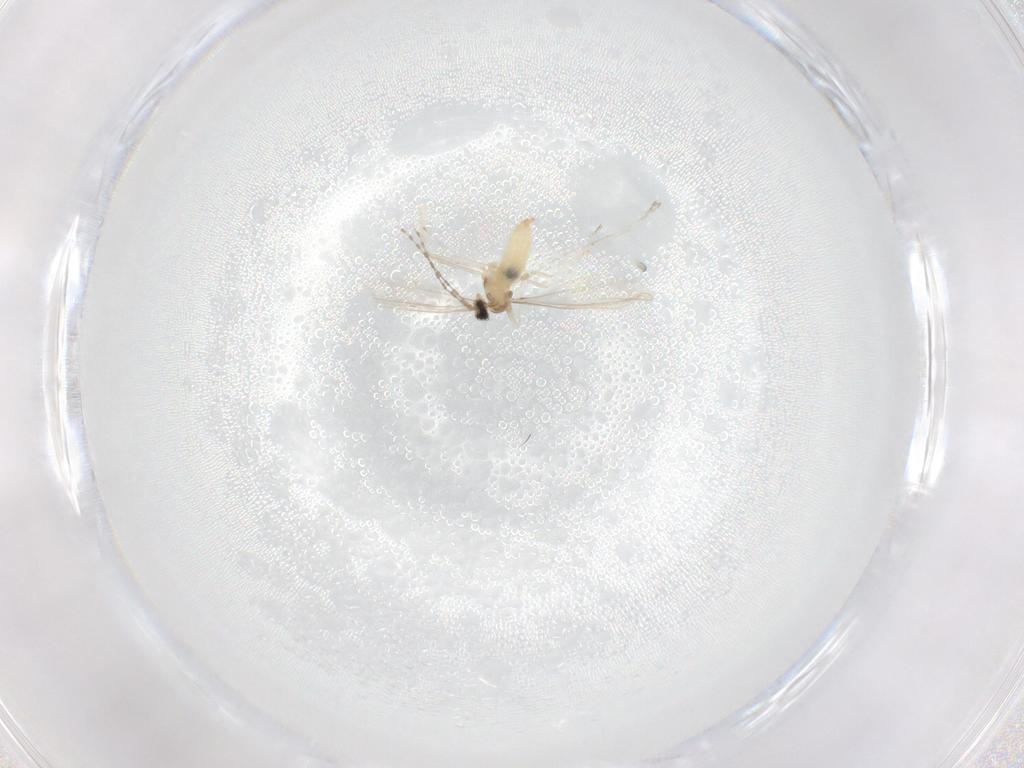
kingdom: Animalia
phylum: Arthropoda
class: Insecta
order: Diptera
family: Cecidomyiidae
